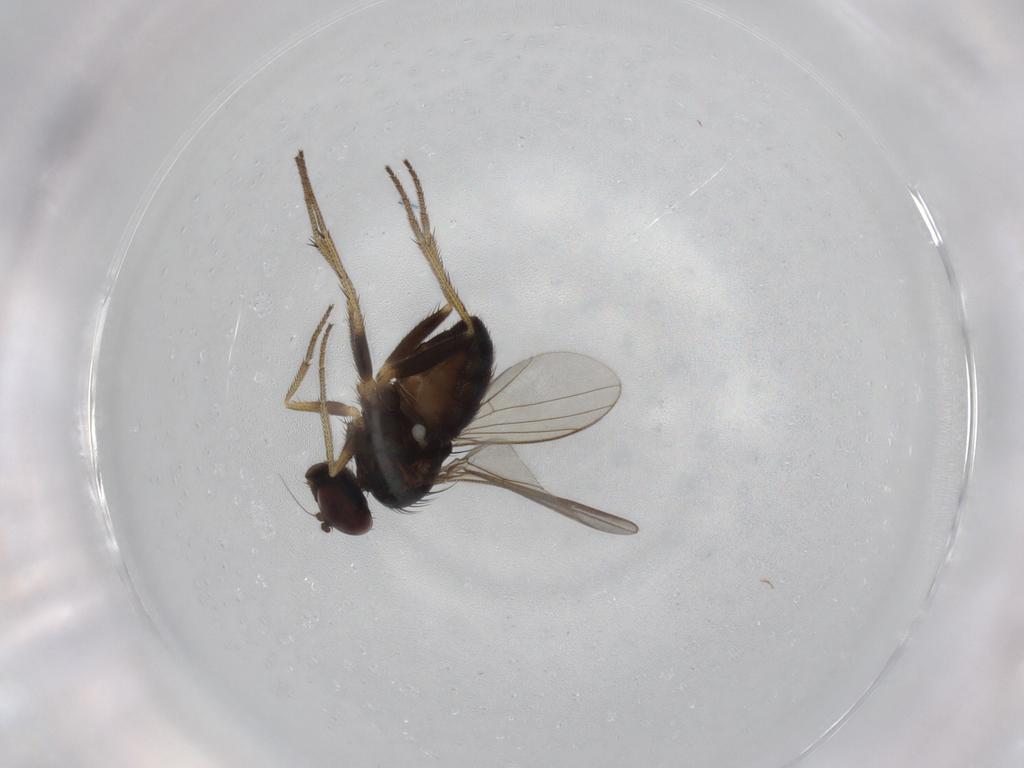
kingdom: Animalia
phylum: Arthropoda
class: Insecta
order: Diptera
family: Dolichopodidae
